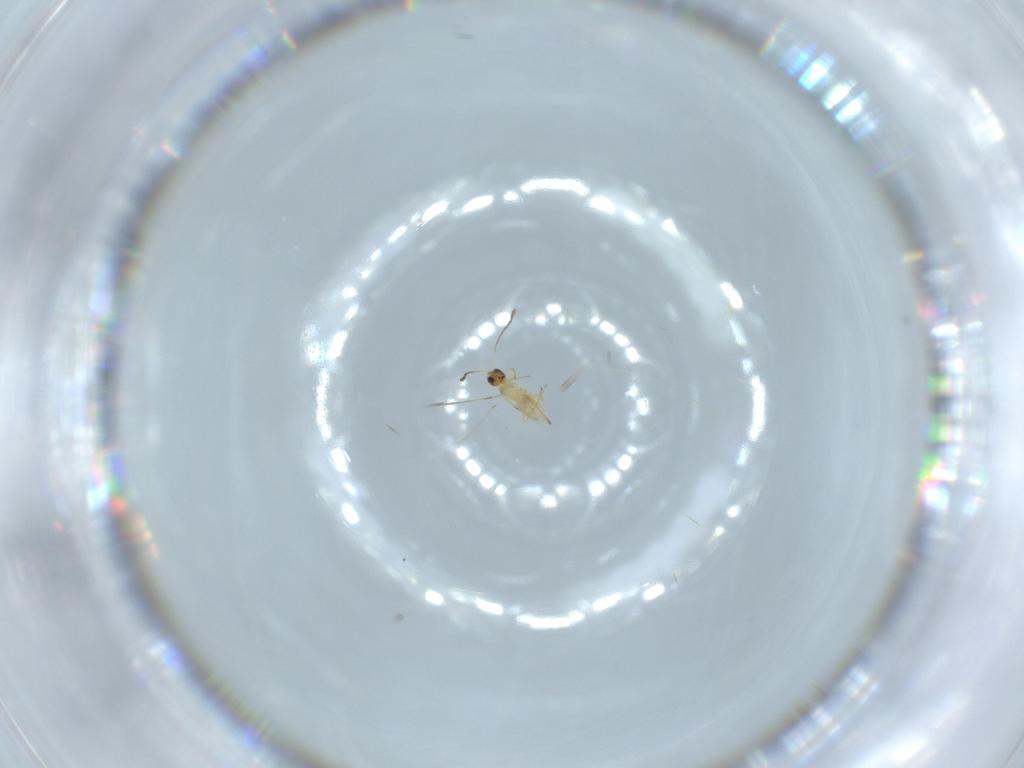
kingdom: Animalia
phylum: Arthropoda
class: Insecta
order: Hymenoptera
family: Mymaridae
